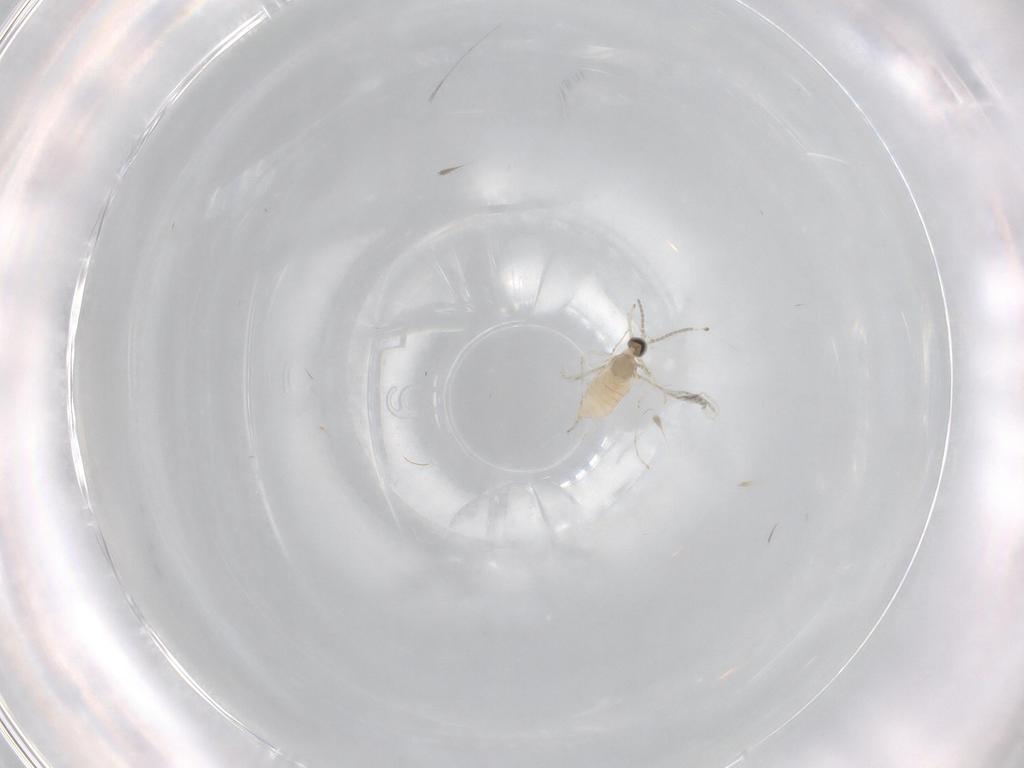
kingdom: Animalia
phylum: Arthropoda
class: Insecta
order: Diptera
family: Cecidomyiidae
